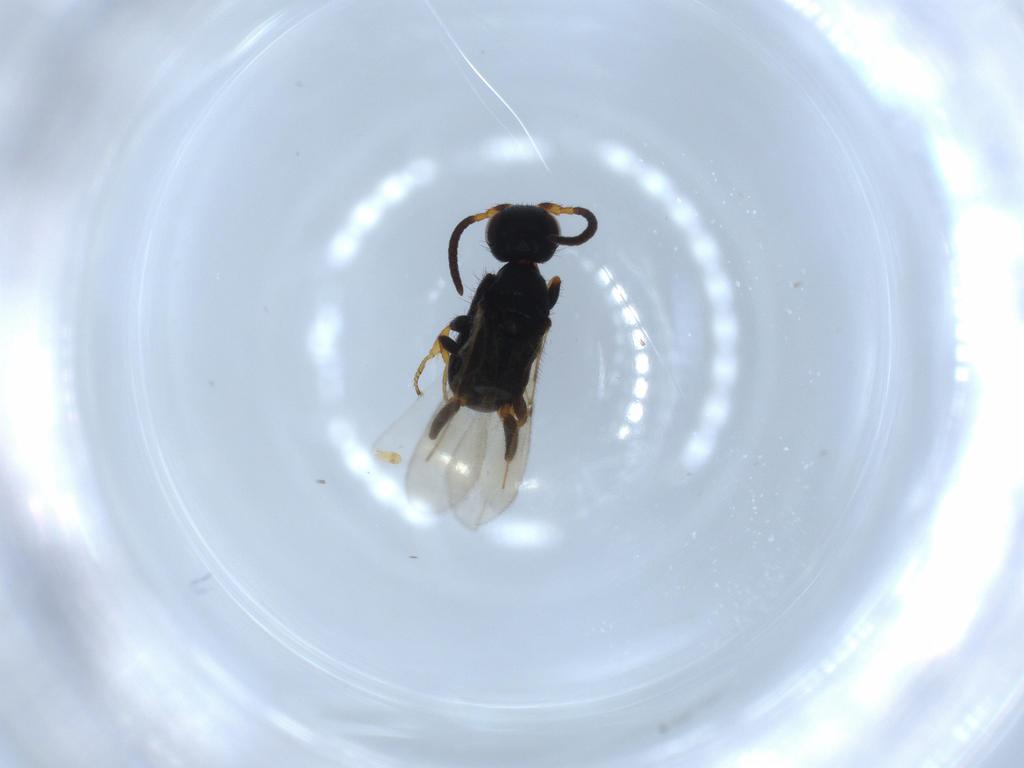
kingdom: Animalia
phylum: Arthropoda
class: Insecta
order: Hymenoptera
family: Bethylidae
